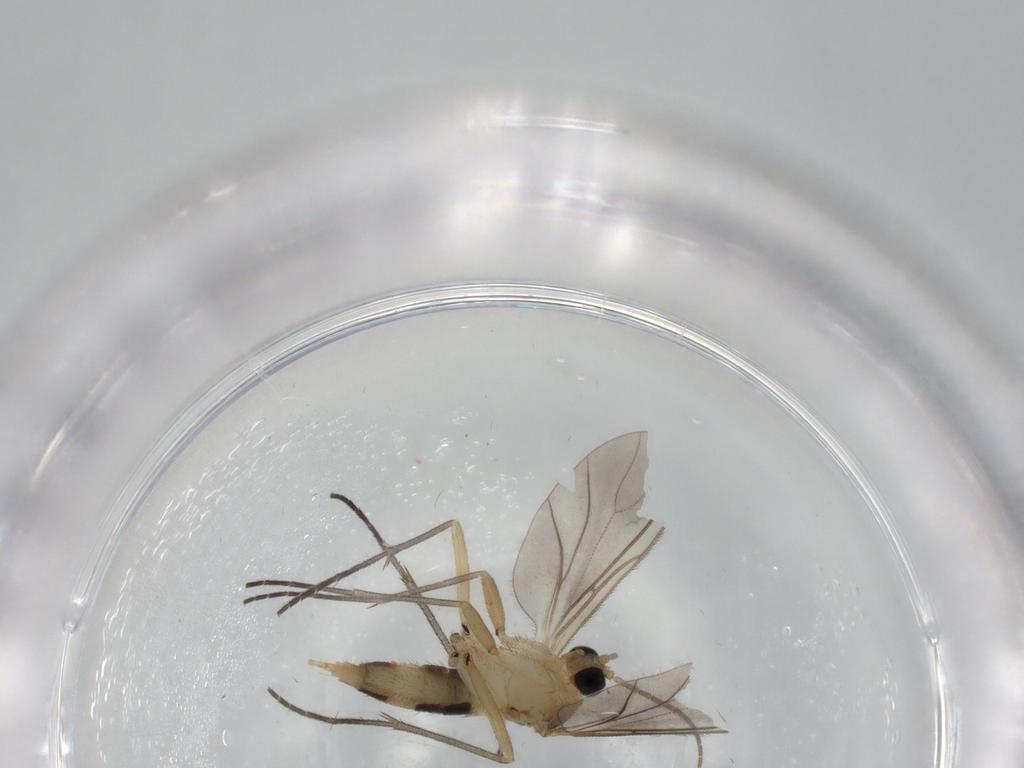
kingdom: Animalia
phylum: Arthropoda
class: Insecta
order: Diptera
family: Sciaridae
